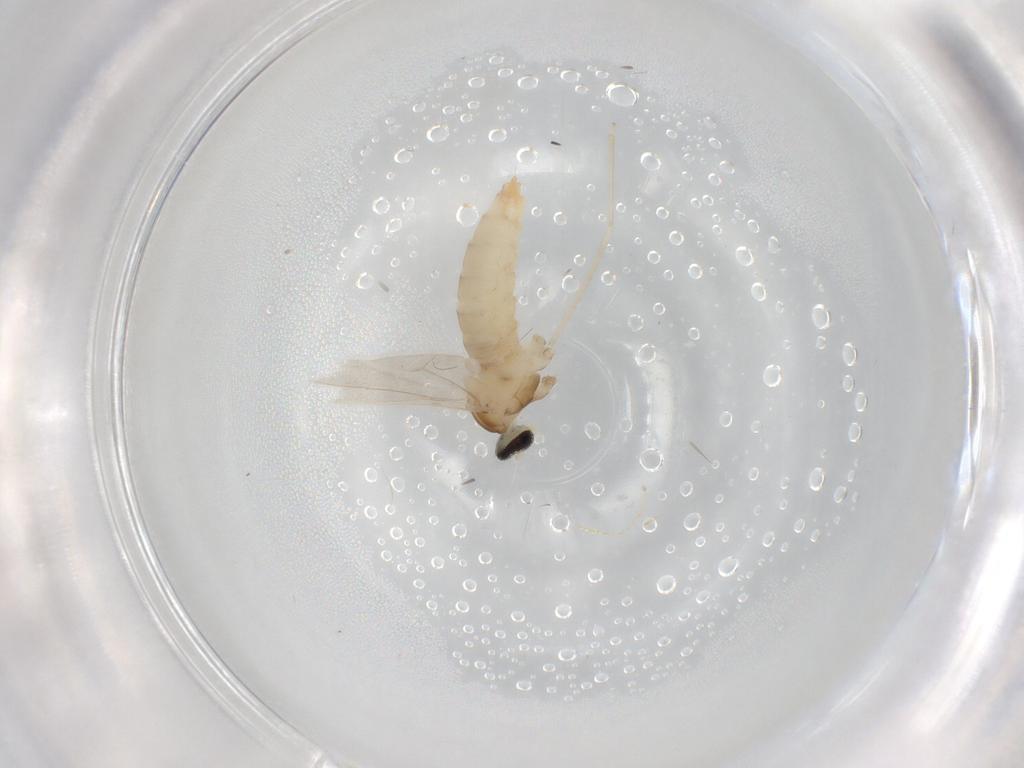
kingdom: Animalia
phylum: Arthropoda
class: Insecta
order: Diptera
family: Cecidomyiidae
